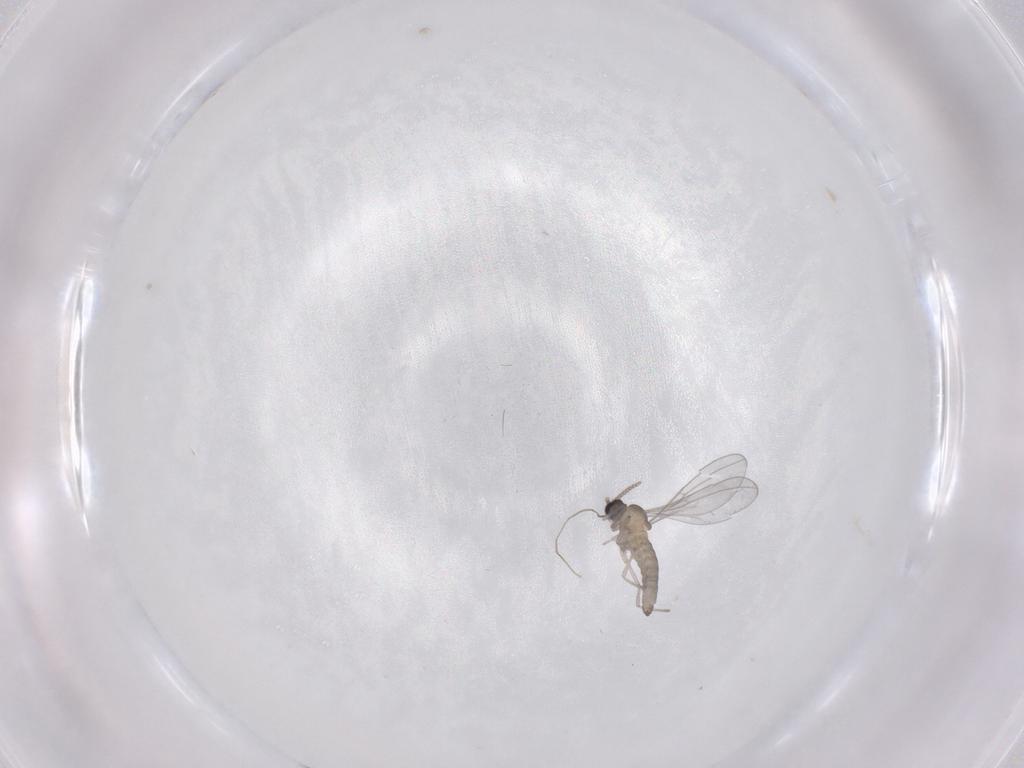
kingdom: Animalia
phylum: Arthropoda
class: Insecta
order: Diptera
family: Cecidomyiidae
